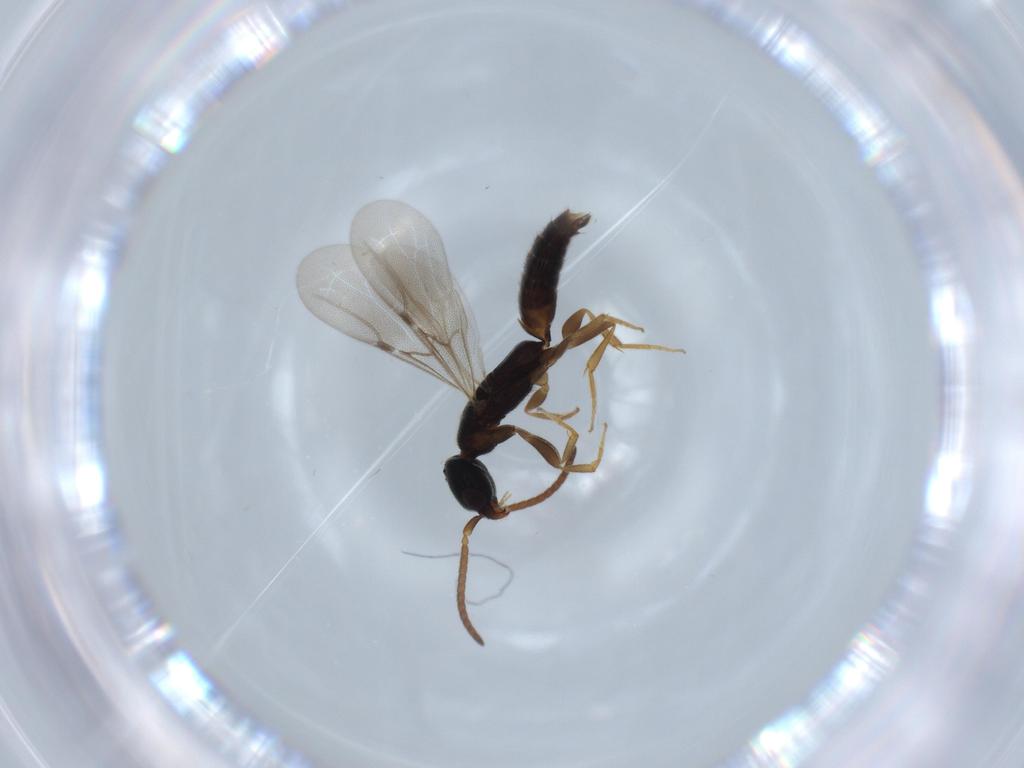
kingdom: Animalia
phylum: Arthropoda
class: Insecta
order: Hymenoptera
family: Bethylidae
